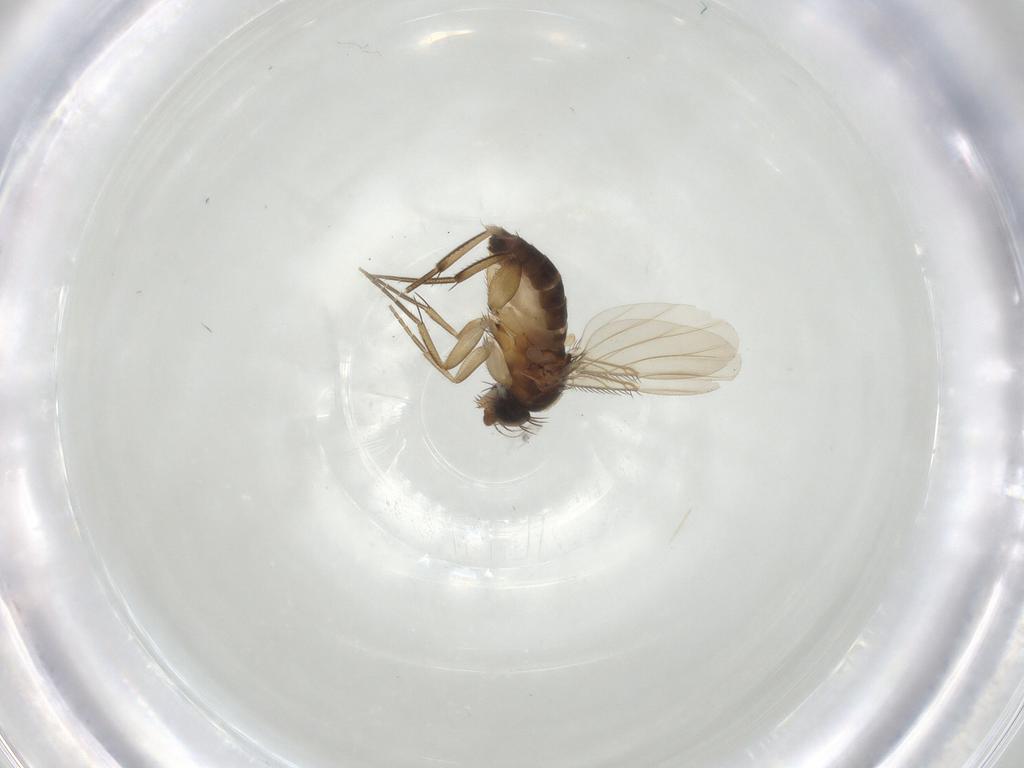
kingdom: Animalia
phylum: Arthropoda
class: Insecta
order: Diptera
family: Phoridae
